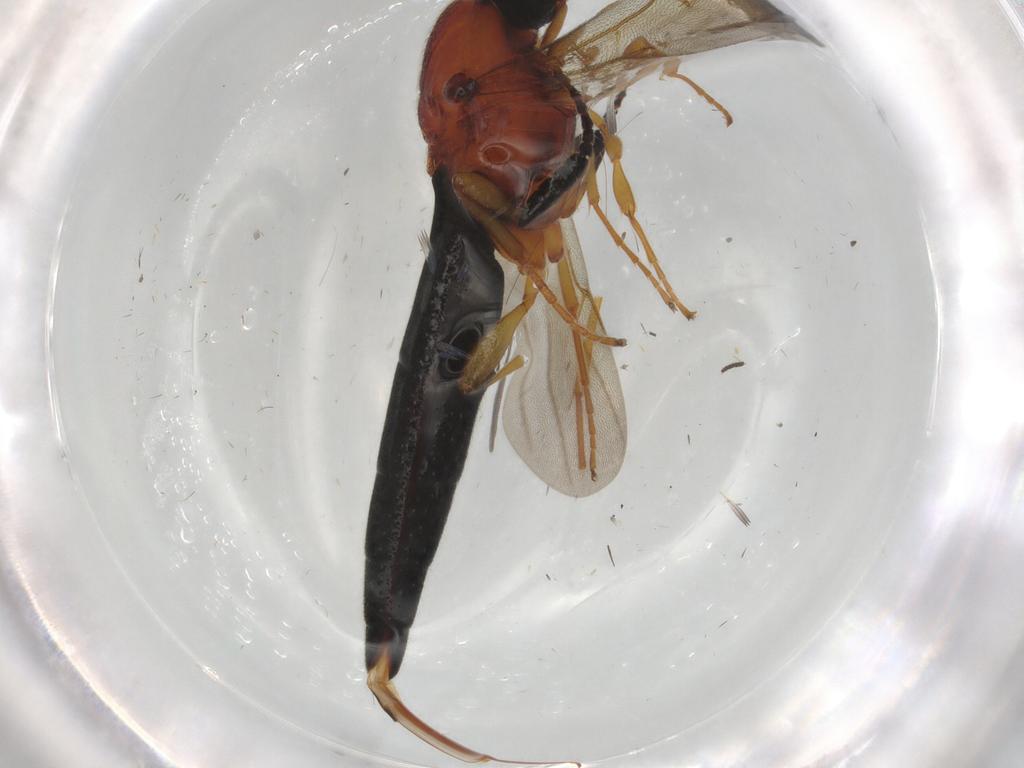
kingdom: Animalia
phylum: Arthropoda
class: Insecta
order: Hymenoptera
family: Scelionidae
